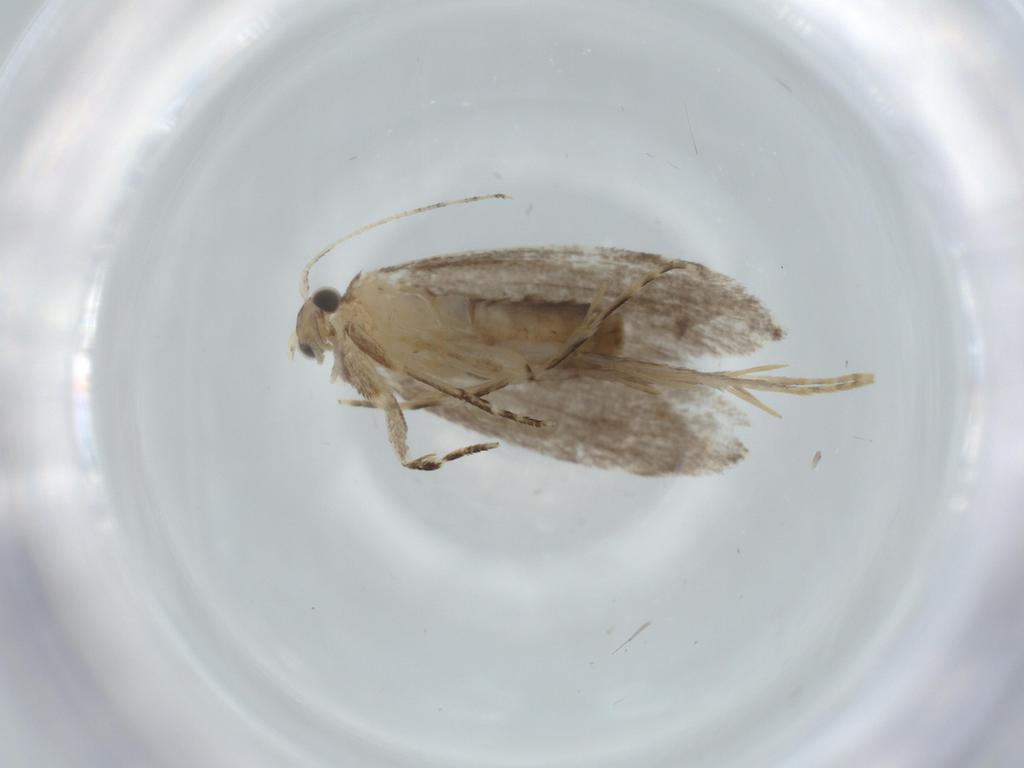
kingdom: Animalia
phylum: Arthropoda
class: Insecta
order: Lepidoptera
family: Tineidae
